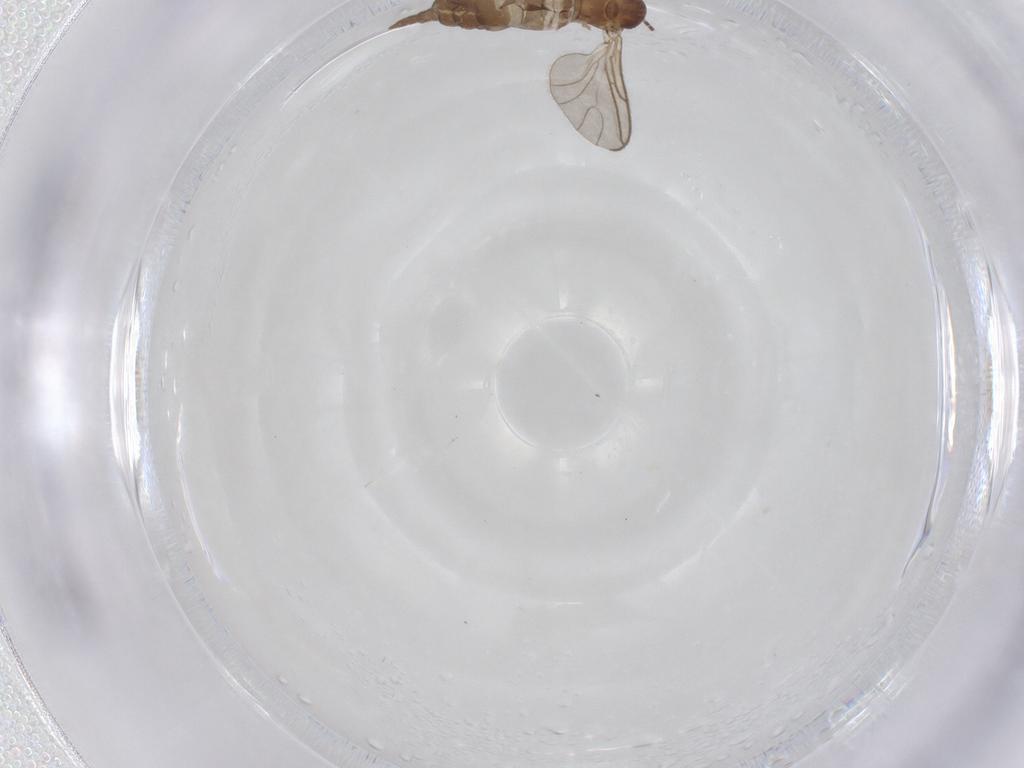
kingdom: Animalia
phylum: Arthropoda
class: Insecta
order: Diptera
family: Sciaridae
